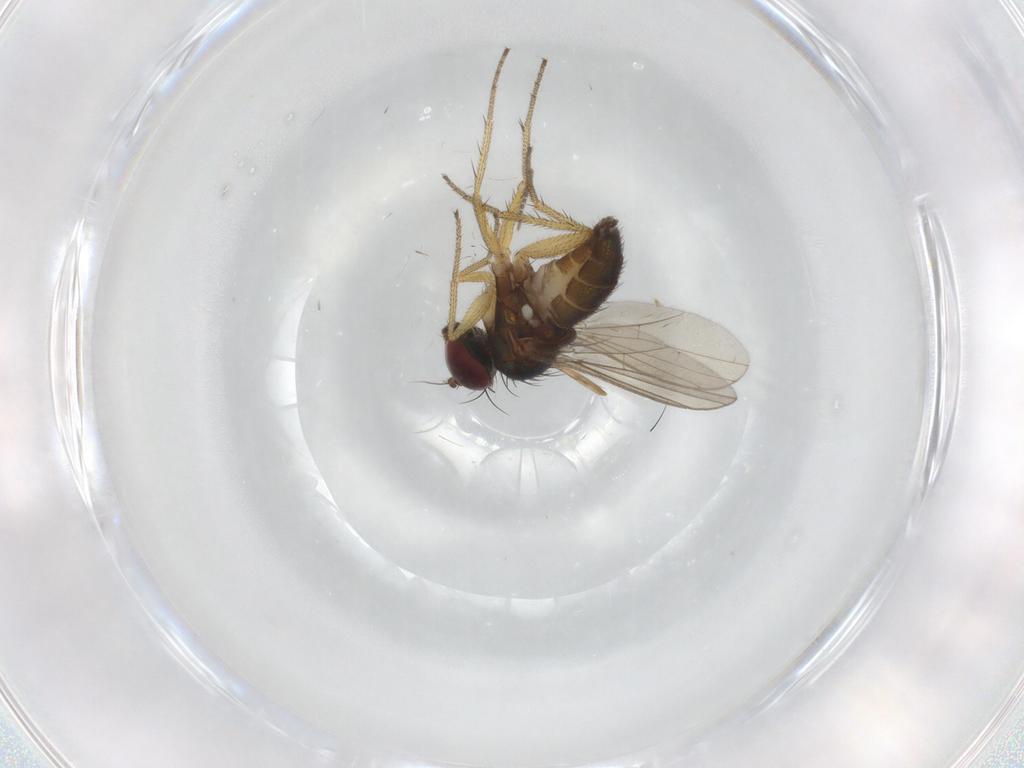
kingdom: Animalia
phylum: Arthropoda
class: Insecta
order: Diptera
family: Sciaridae
